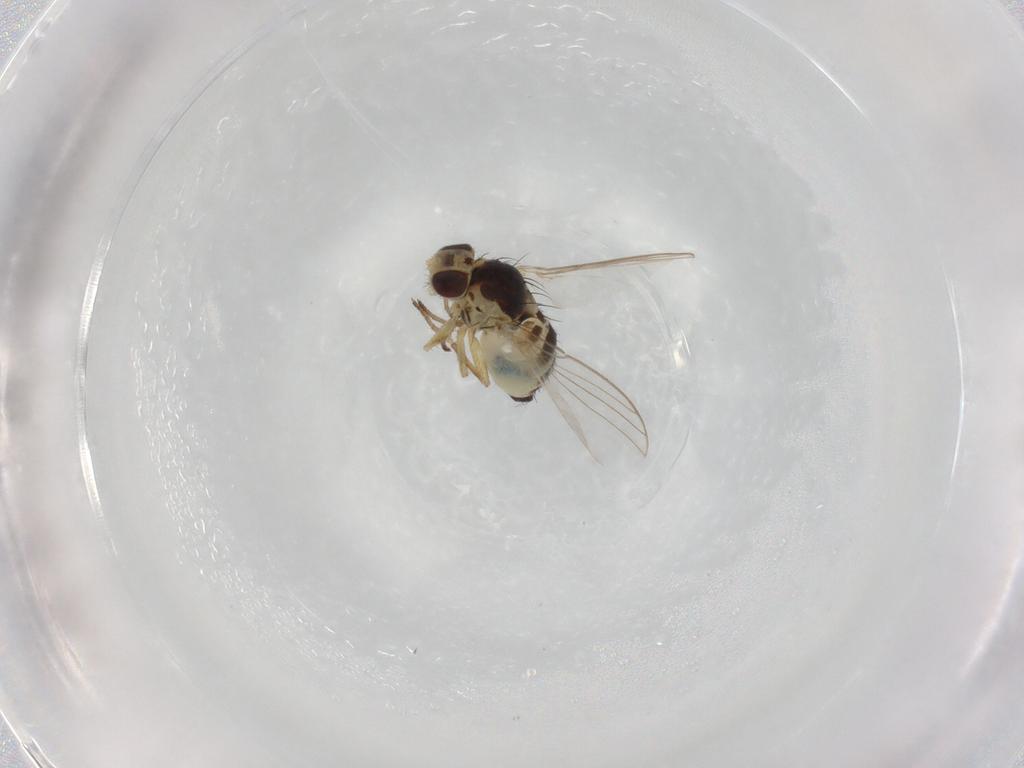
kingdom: Animalia
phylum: Arthropoda
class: Insecta
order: Diptera
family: Agromyzidae
